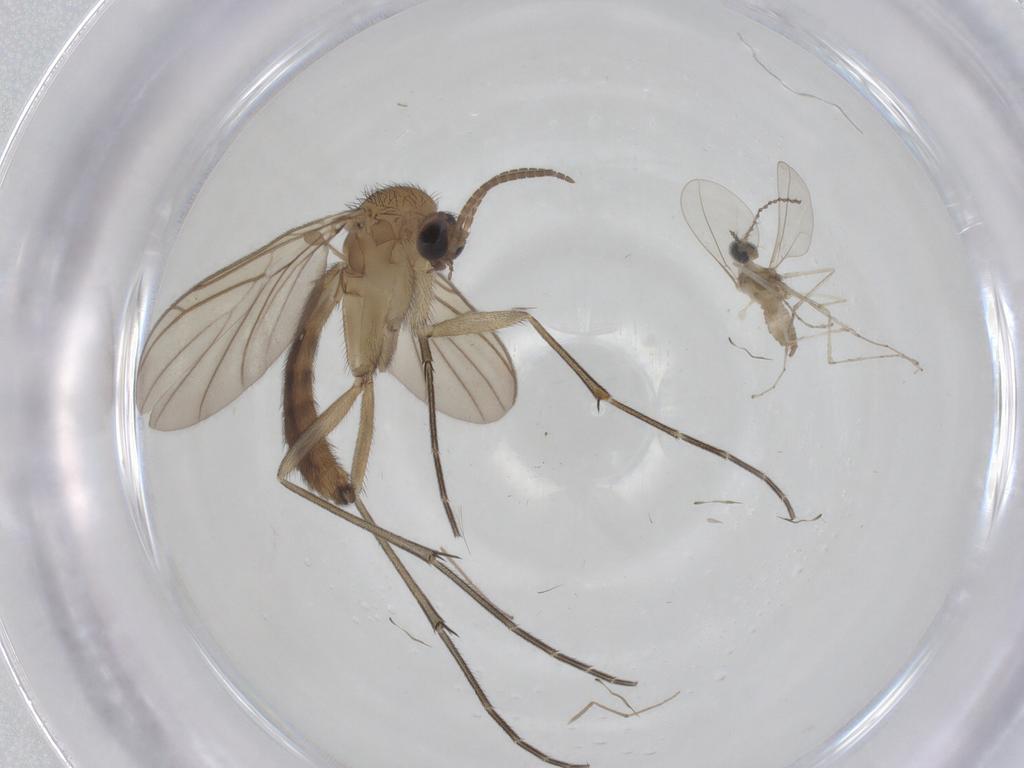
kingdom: Animalia
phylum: Arthropoda
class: Insecta
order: Diptera
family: Keroplatidae
